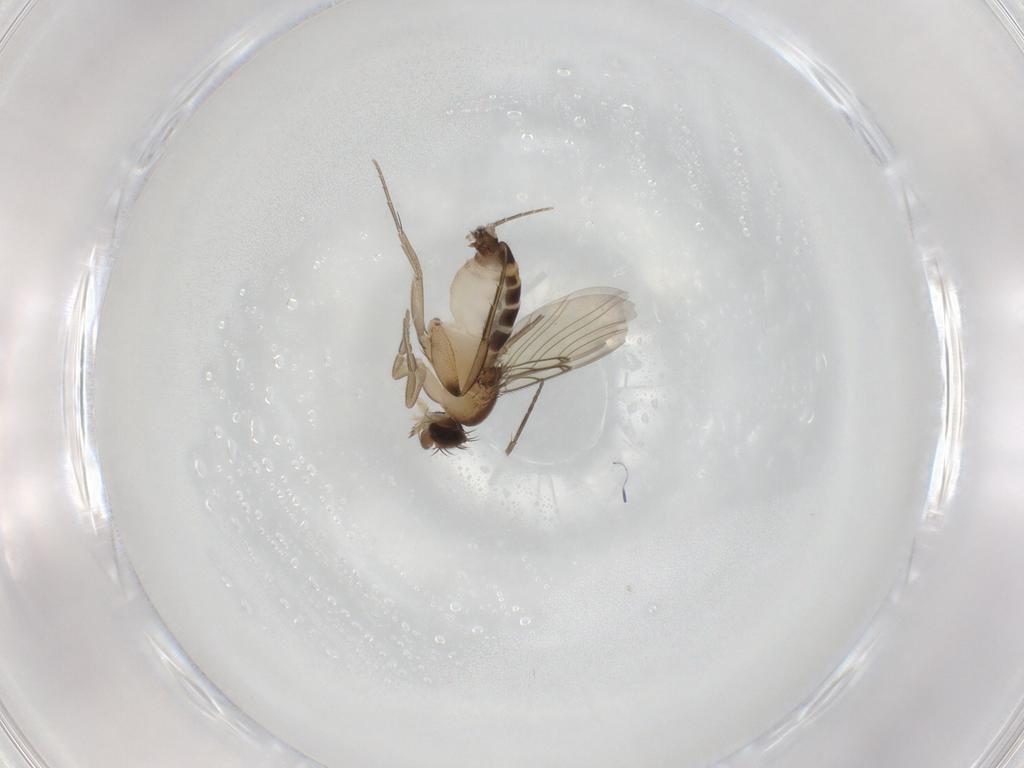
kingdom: Animalia
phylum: Arthropoda
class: Insecta
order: Diptera
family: Sciaridae
